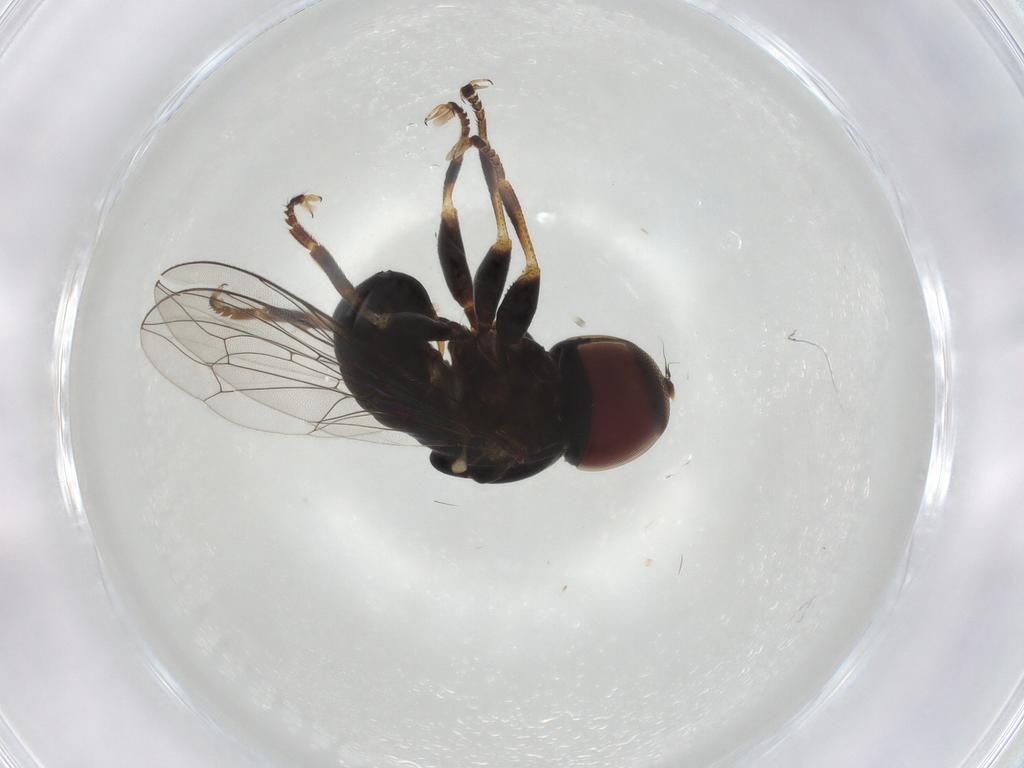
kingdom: Animalia
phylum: Arthropoda
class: Insecta
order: Diptera
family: Pipunculidae
